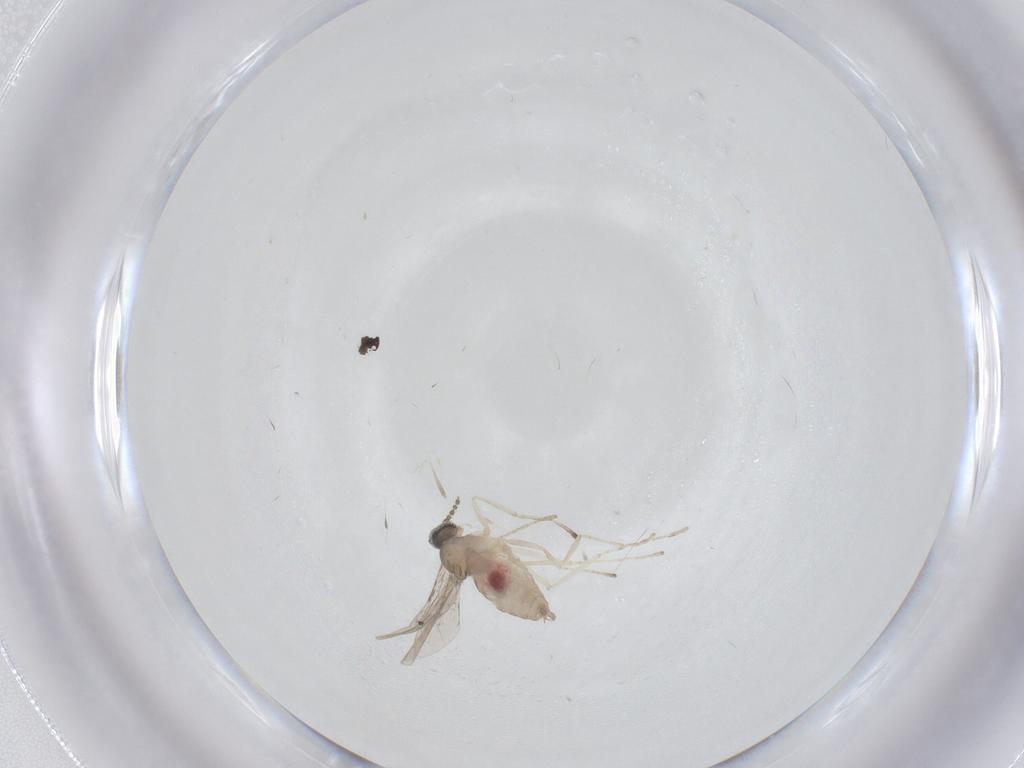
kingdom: Animalia
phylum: Arthropoda
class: Insecta
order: Diptera
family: Cecidomyiidae
